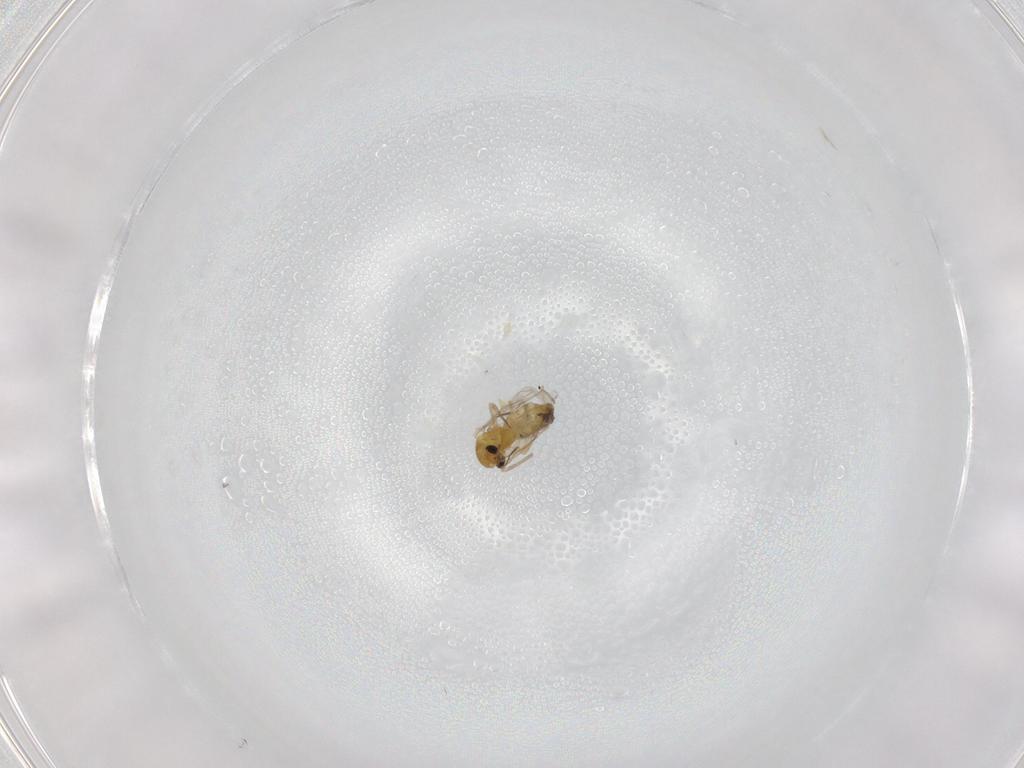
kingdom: Animalia
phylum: Arthropoda
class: Insecta
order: Diptera
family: Chironomidae
